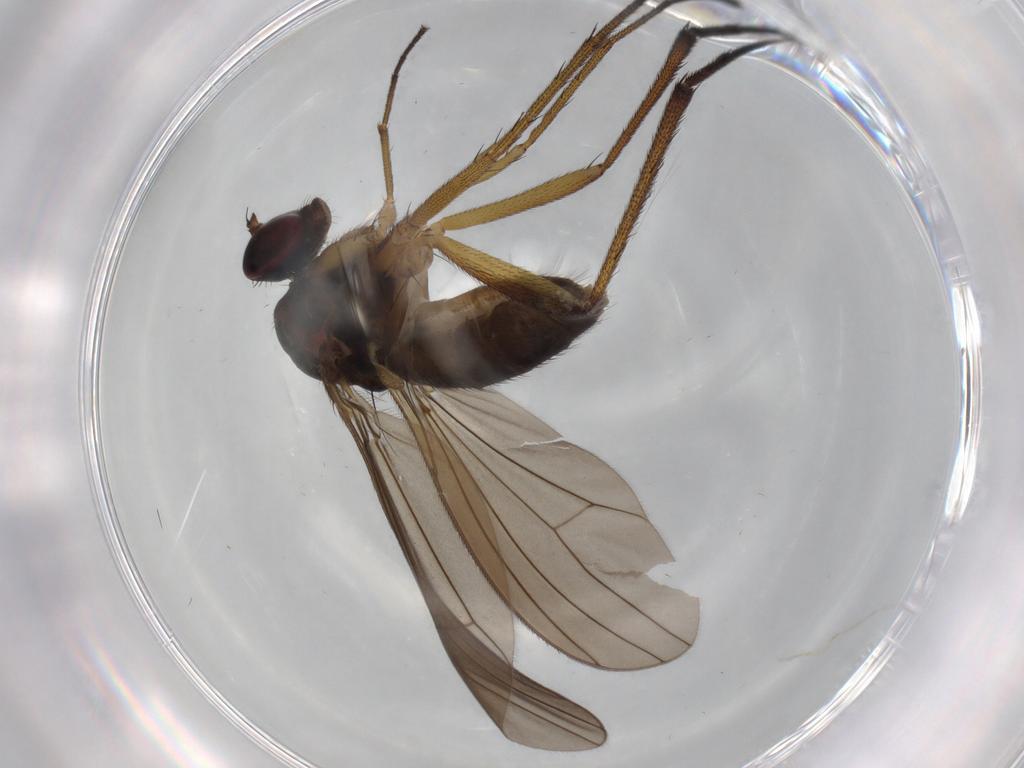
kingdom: Animalia
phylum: Arthropoda
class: Insecta
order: Diptera
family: Dolichopodidae
